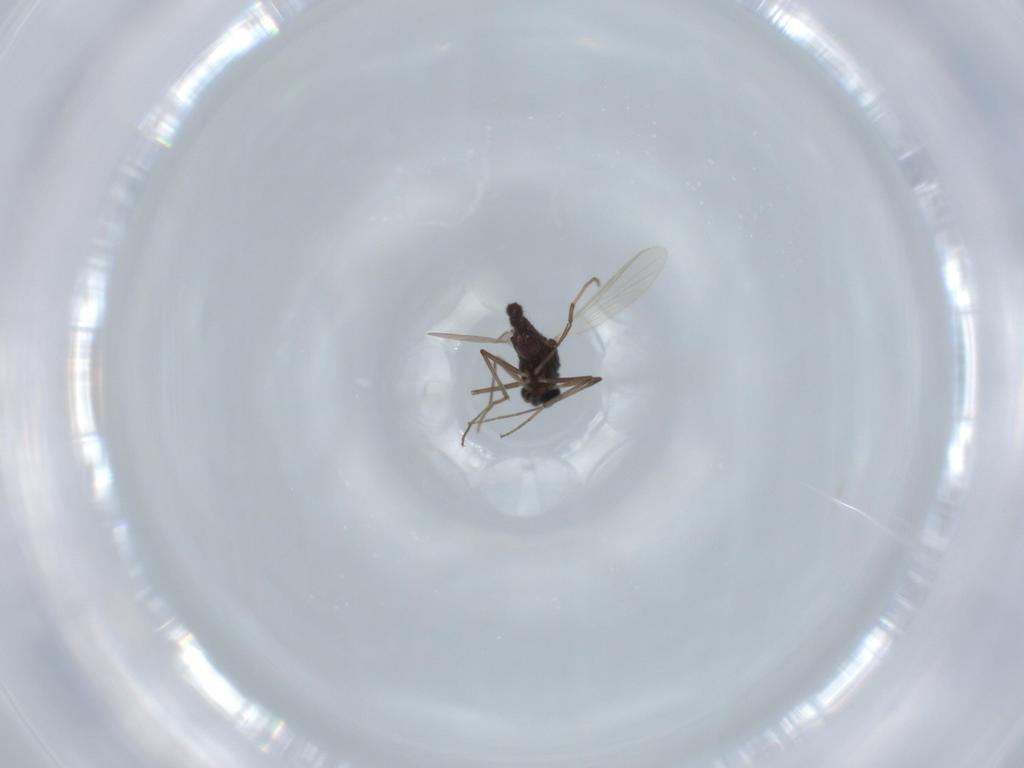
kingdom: Animalia
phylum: Arthropoda
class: Insecta
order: Diptera
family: Chironomidae
